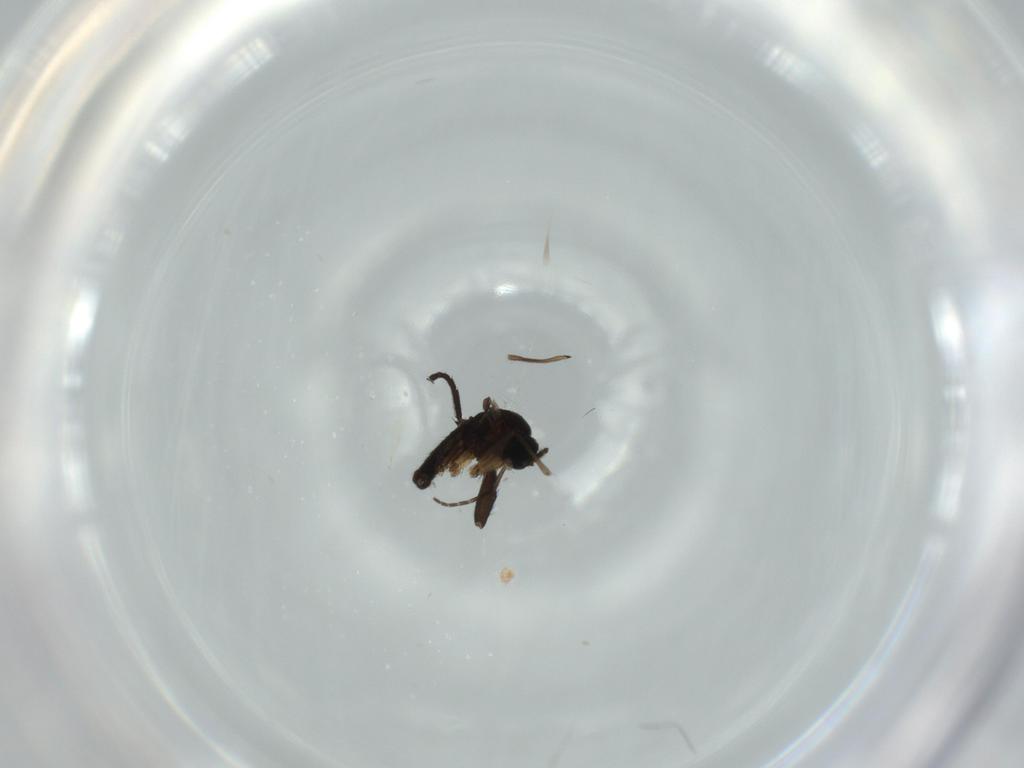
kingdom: Animalia
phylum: Arthropoda
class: Insecta
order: Diptera
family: Sciaridae
